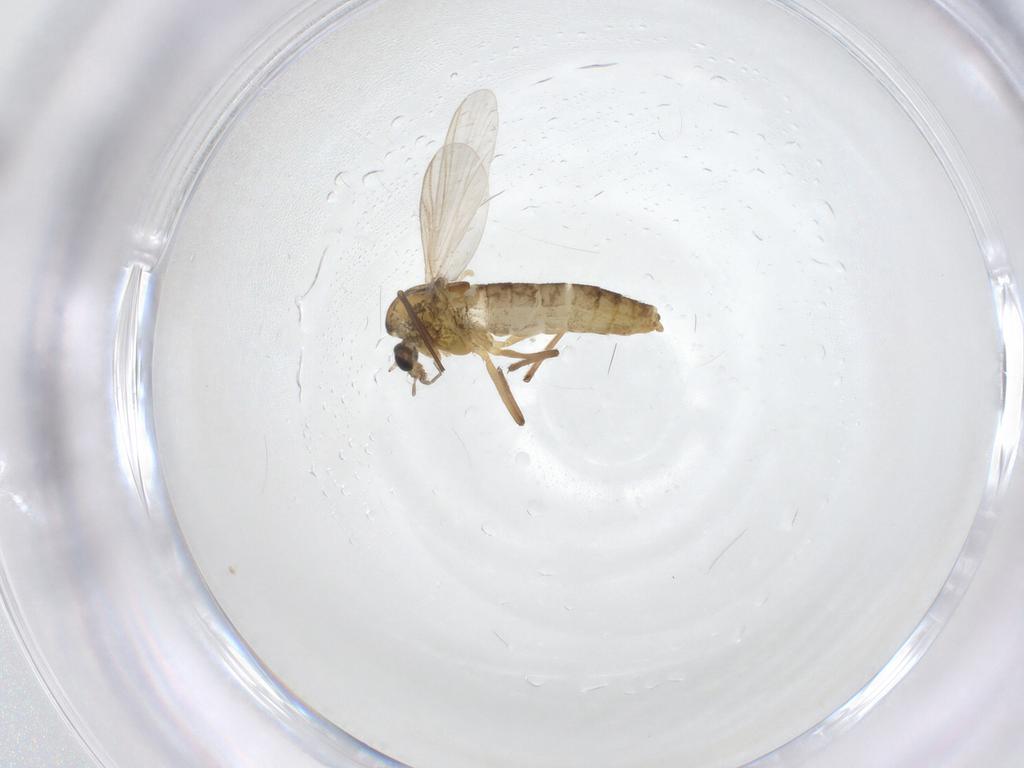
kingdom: Animalia
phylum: Arthropoda
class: Insecta
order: Diptera
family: Chironomidae
